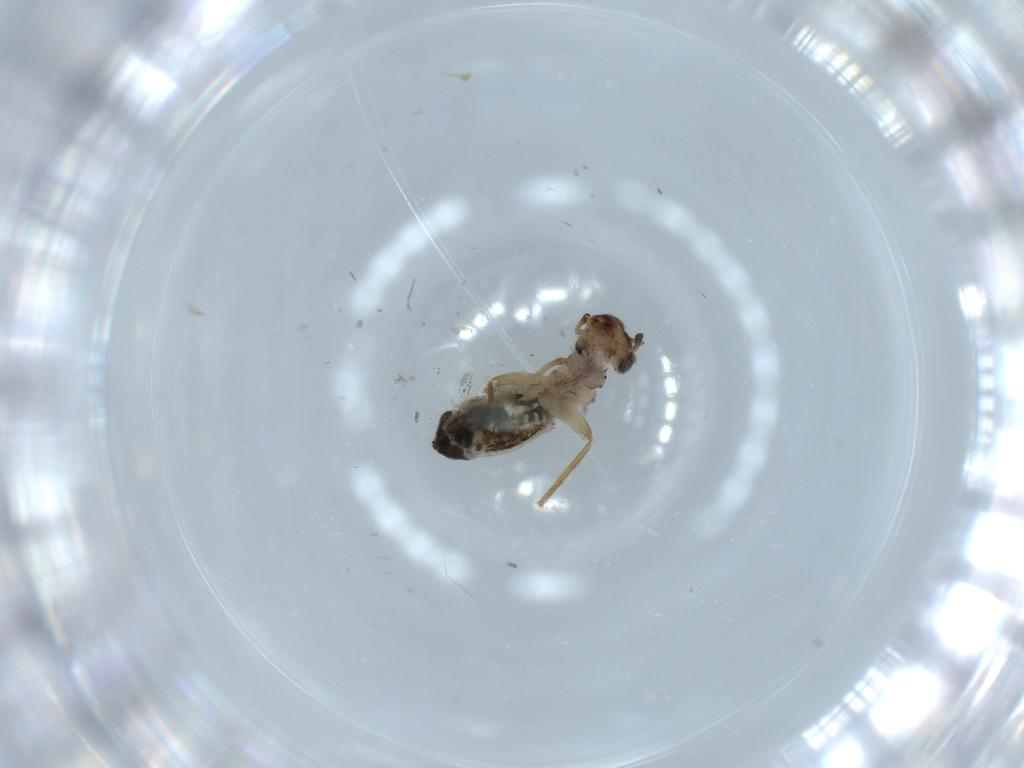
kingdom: Animalia
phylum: Arthropoda
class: Insecta
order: Psocodea
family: Lepidopsocidae
